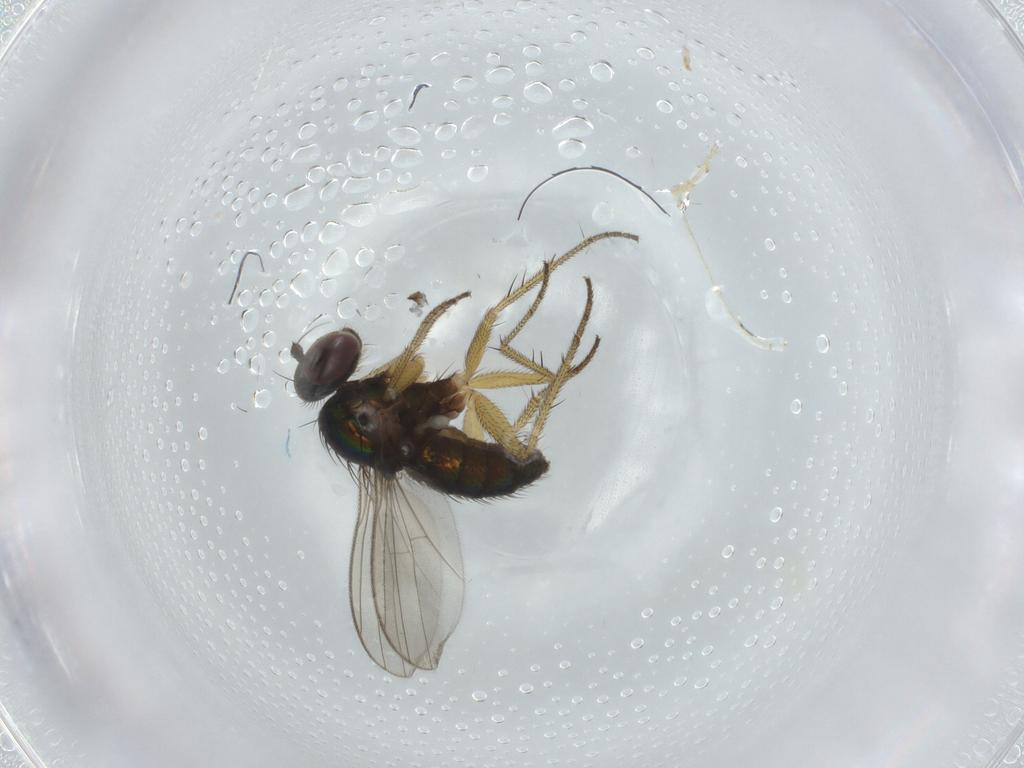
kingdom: Animalia
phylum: Arthropoda
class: Insecta
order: Diptera
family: Dolichopodidae
